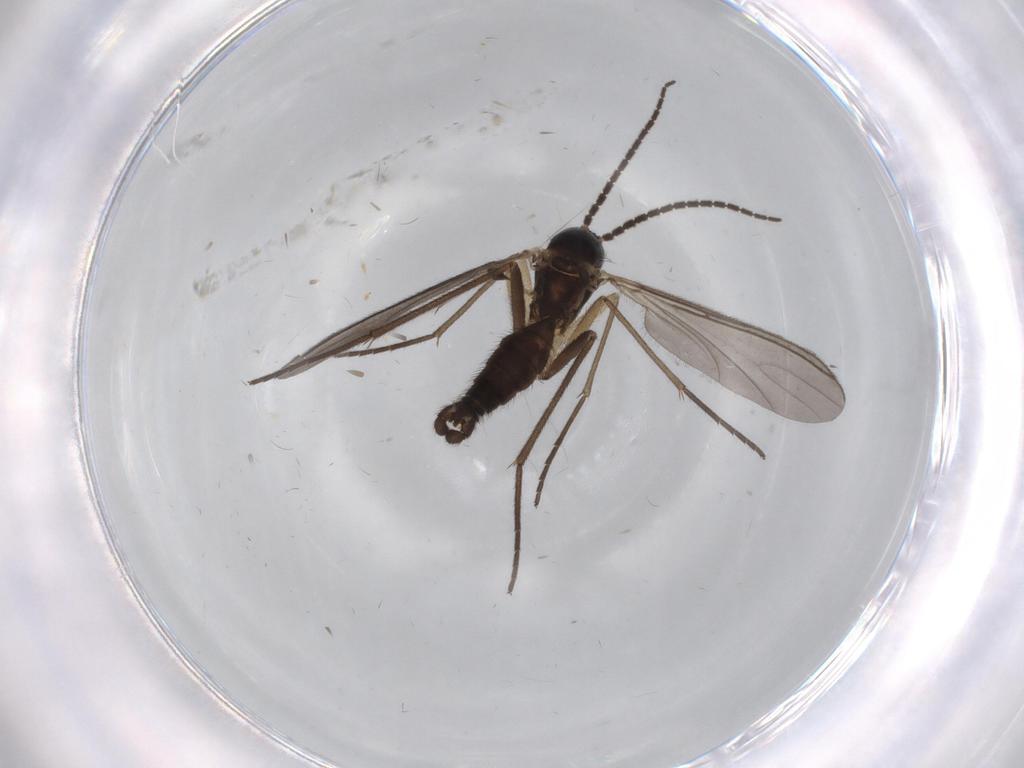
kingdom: Animalia
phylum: Arthropoda
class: Insecta
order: Diptera
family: Sciaridae
